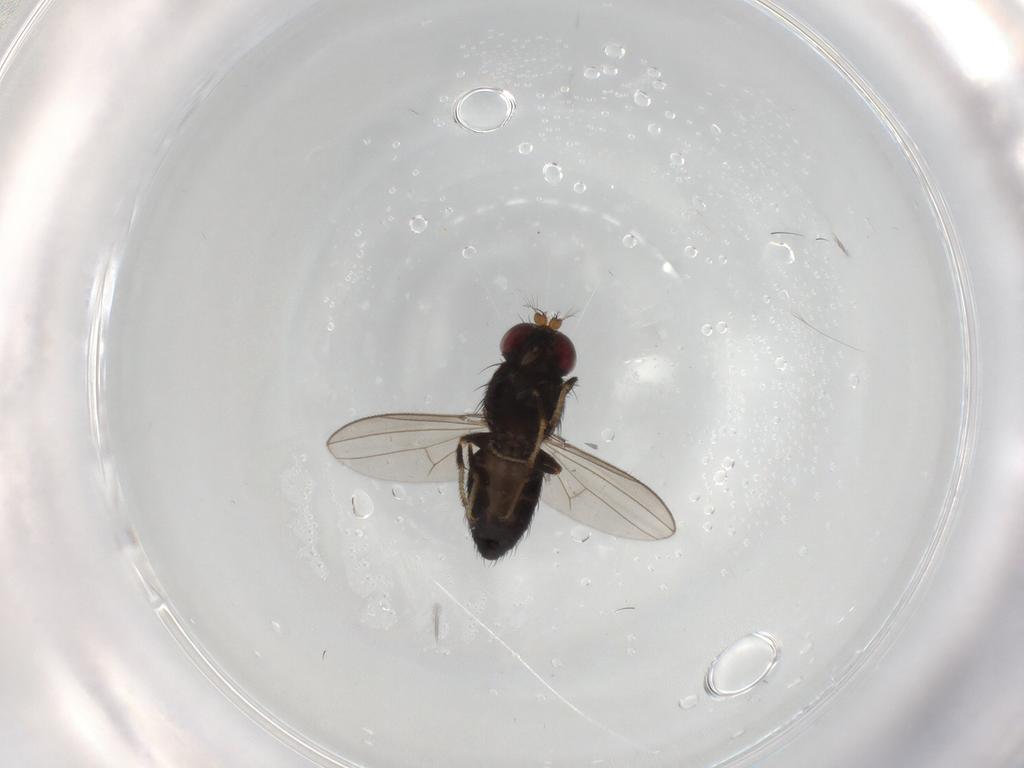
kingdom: Animalia
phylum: Arthropoda
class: Insecta
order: Diptera
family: Cecidomyiidae
